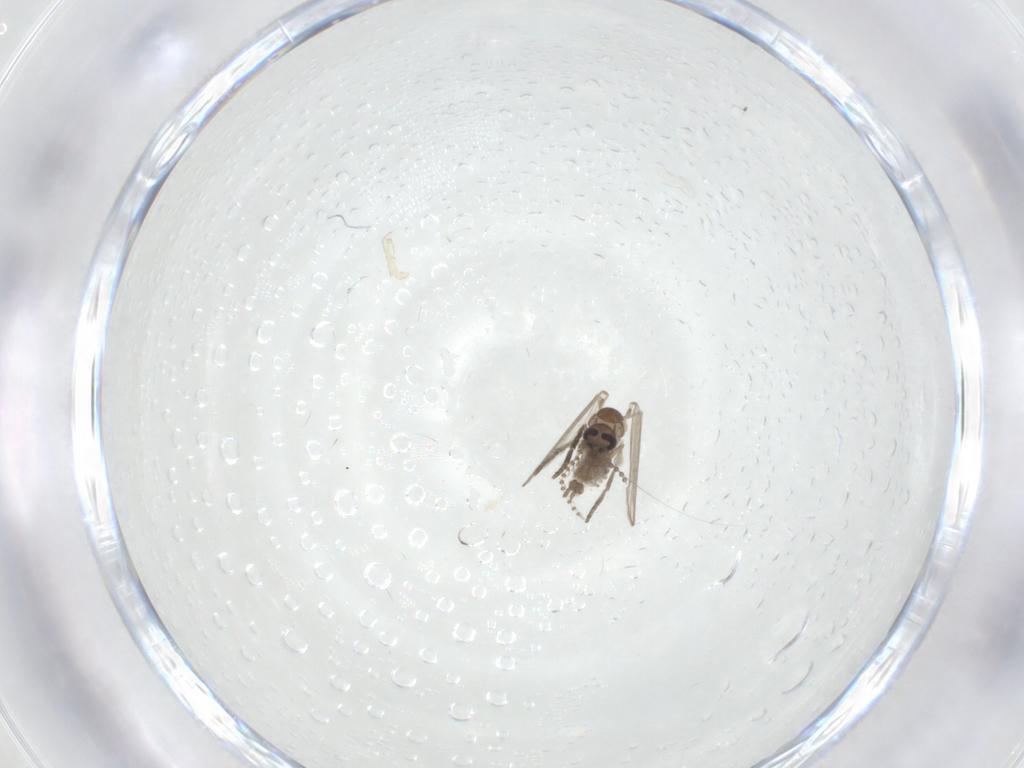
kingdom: Animalia
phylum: Arthropoda
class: Insecta
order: Diptera
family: Psychodidae
